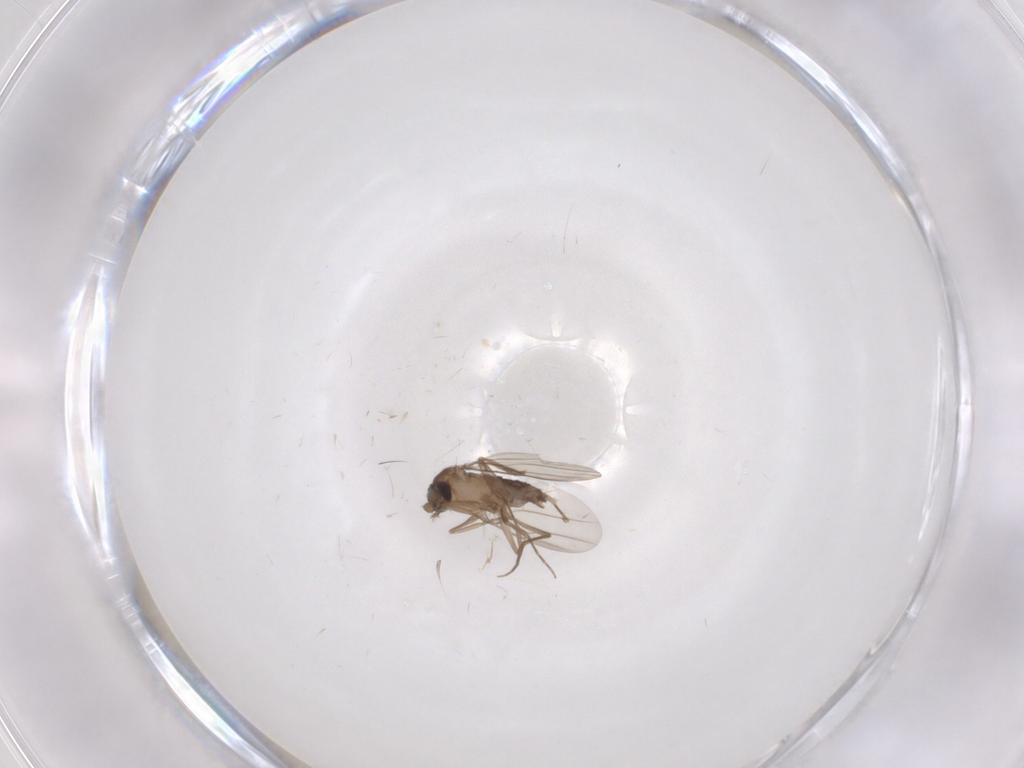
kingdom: Animalia
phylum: Arthropoda
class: Insecta
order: Diptera
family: Phoridae
